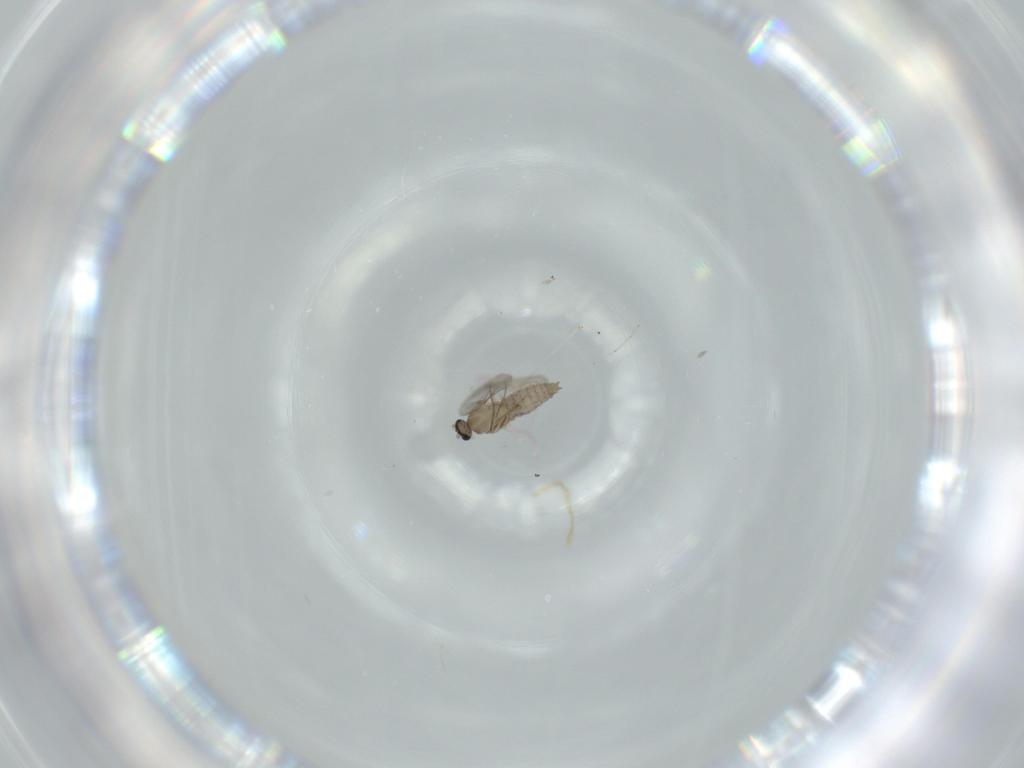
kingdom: Animalia
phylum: Arthropoda
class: Insecta
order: Diptera
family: Cecidomyiidae
